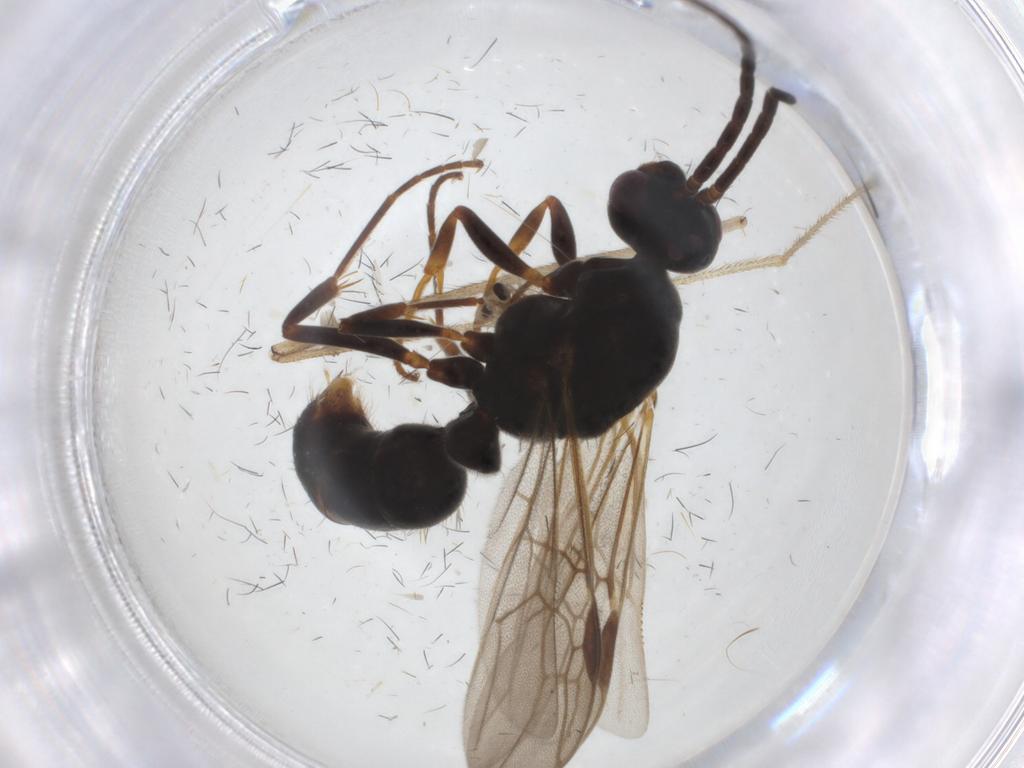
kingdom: Animalia
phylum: Arthropoda
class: Insecta
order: Hymenoptera
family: Formicidae
